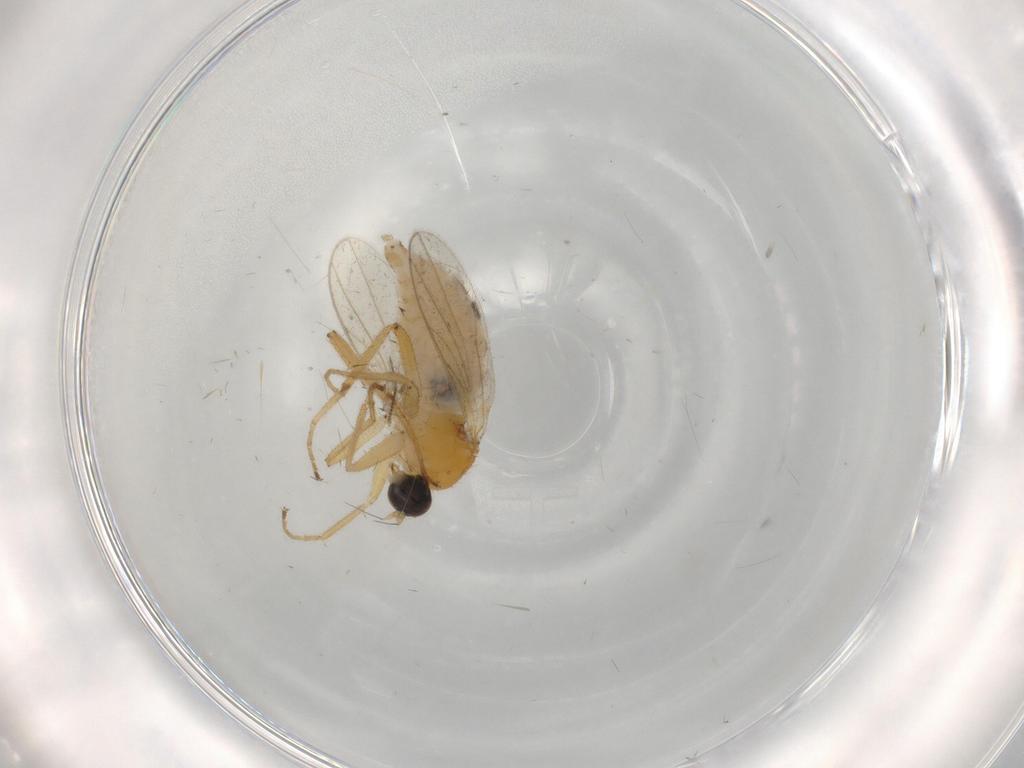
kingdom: Animalia
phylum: Arthropoda
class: Insecta
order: Diptera
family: Hybotidae
